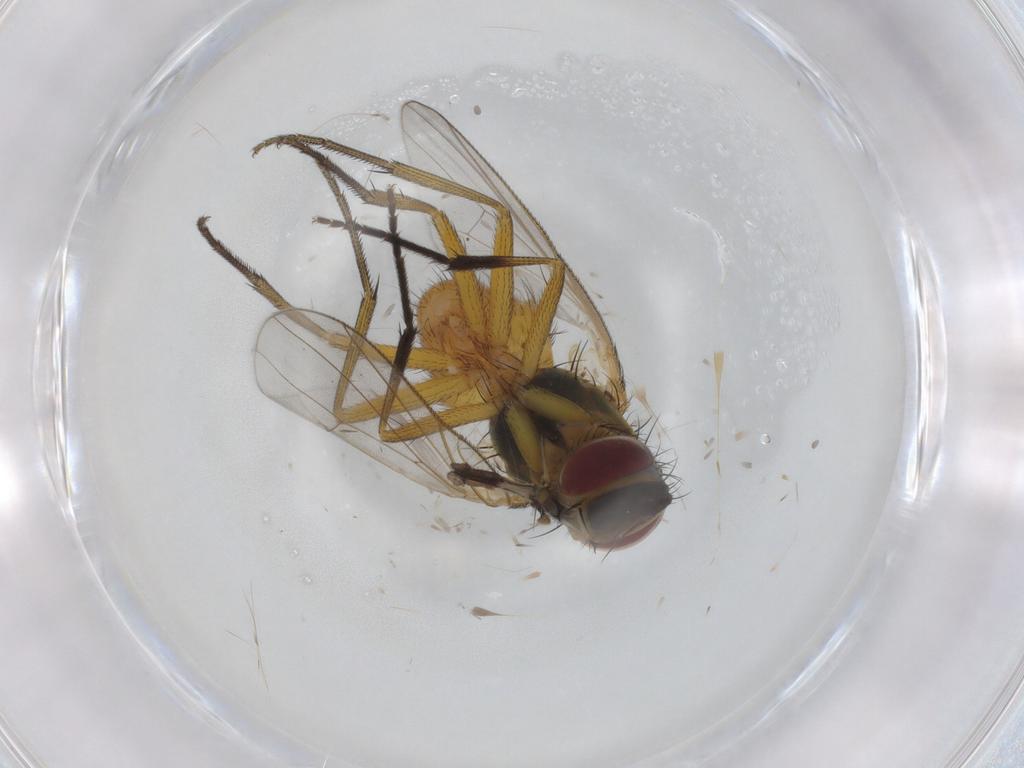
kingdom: Animalia
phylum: Arthropoda
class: Insecta
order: Diptera
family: Muscidae
